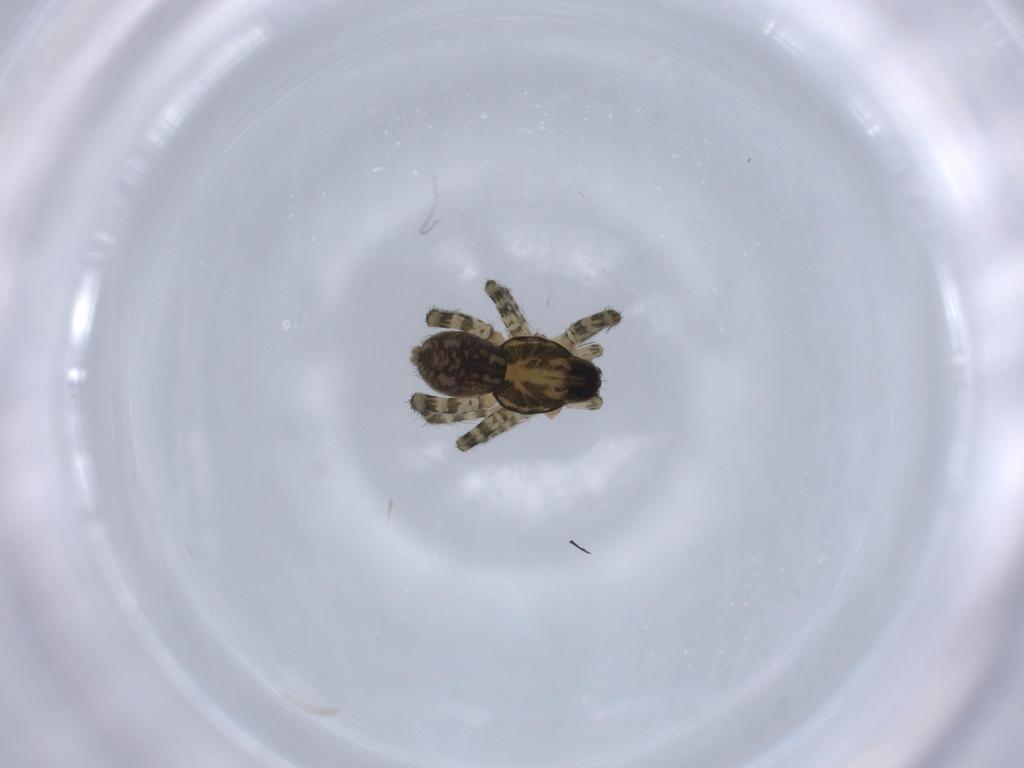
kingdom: Animalia
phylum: Arthropoda
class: Arachnida
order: Araneae
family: Lycosidae
